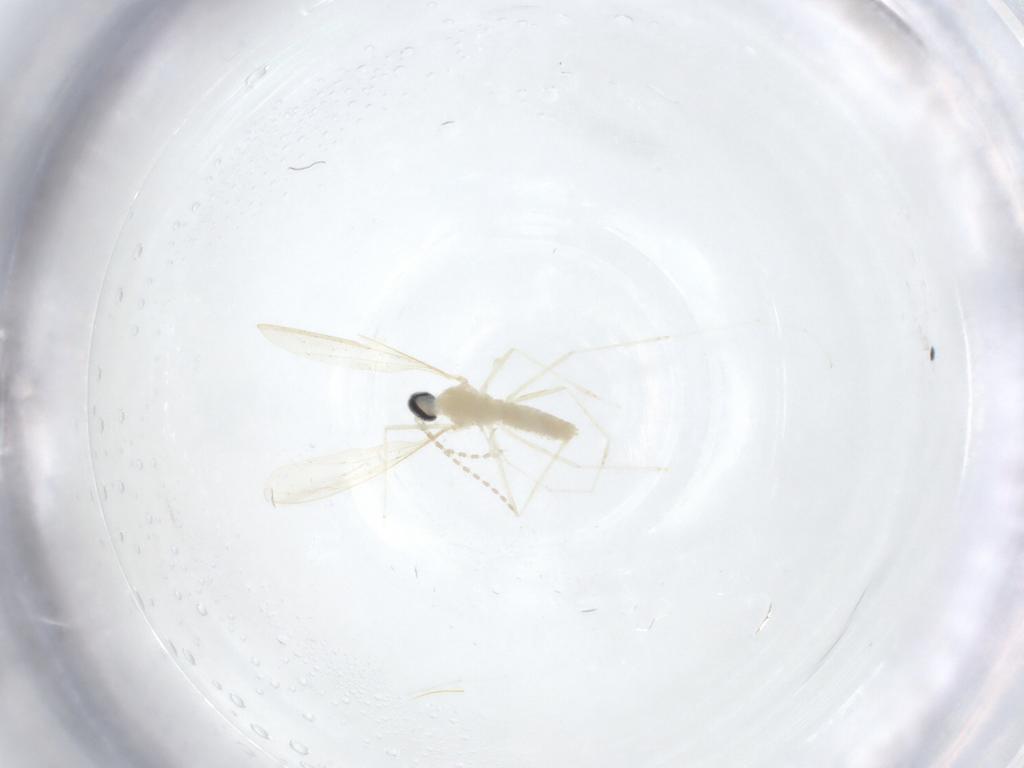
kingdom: Animalia
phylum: Arthropoda
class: Insecta
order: Diptera
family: Cecidomyiidae
